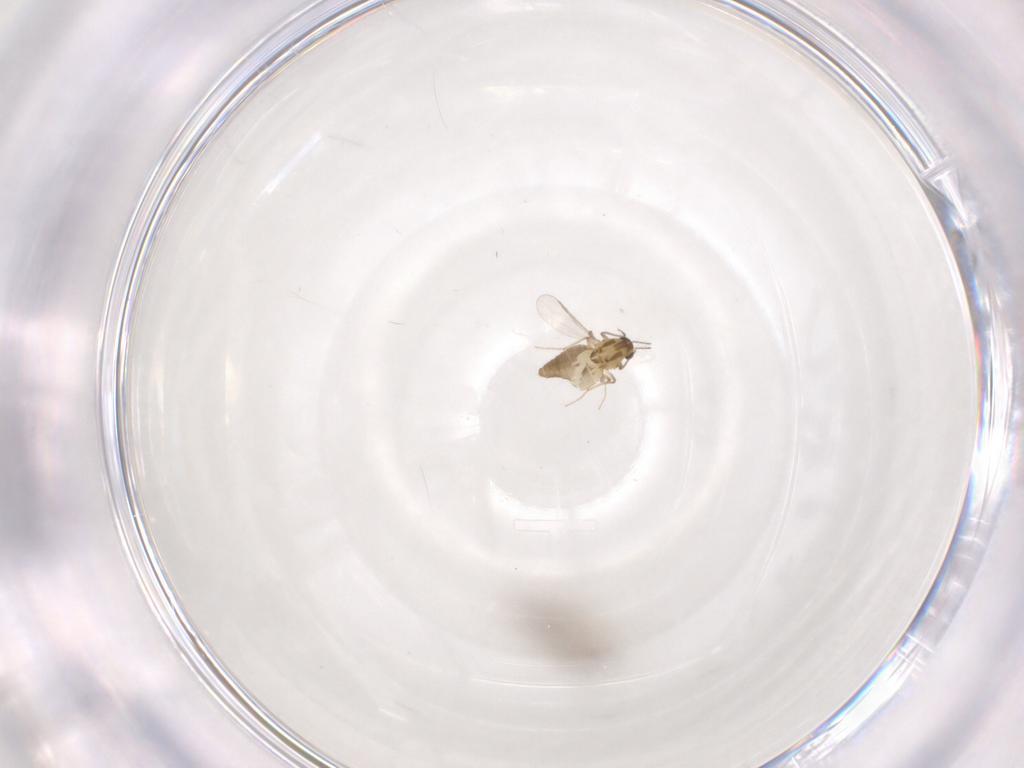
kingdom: Animalia
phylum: Arthropoda
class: Insecta
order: Diptera
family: Chironomidae
